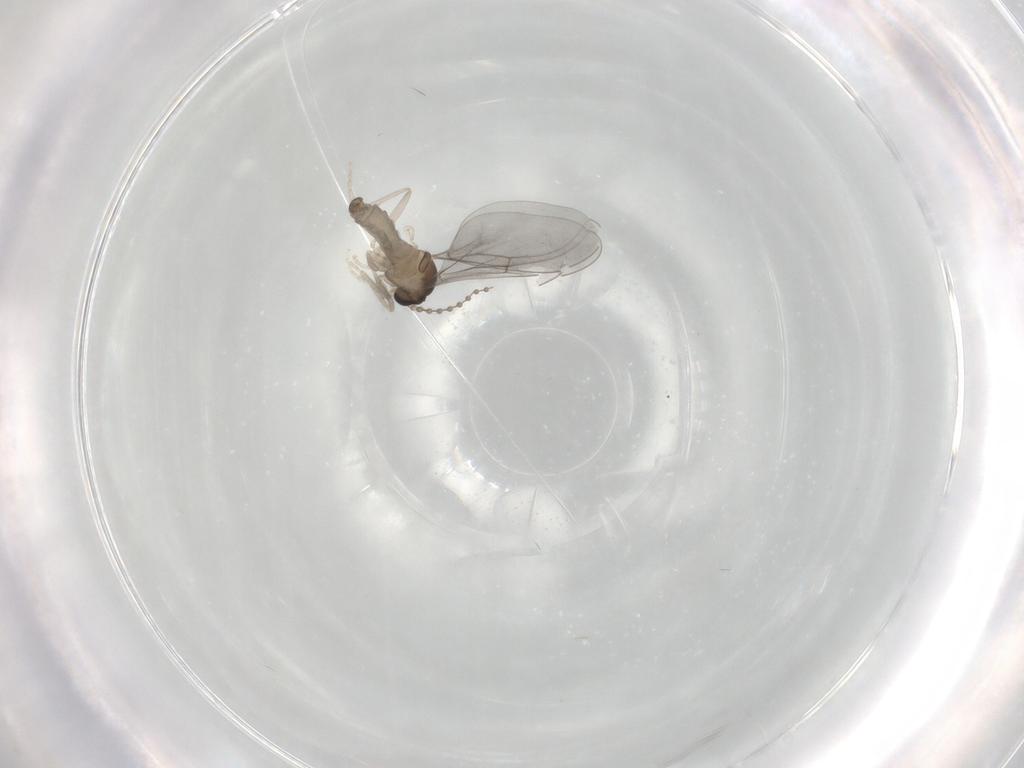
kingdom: Animalia
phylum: Arthropoda
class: Insecta
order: Diptera
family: Cecidomyiidae
